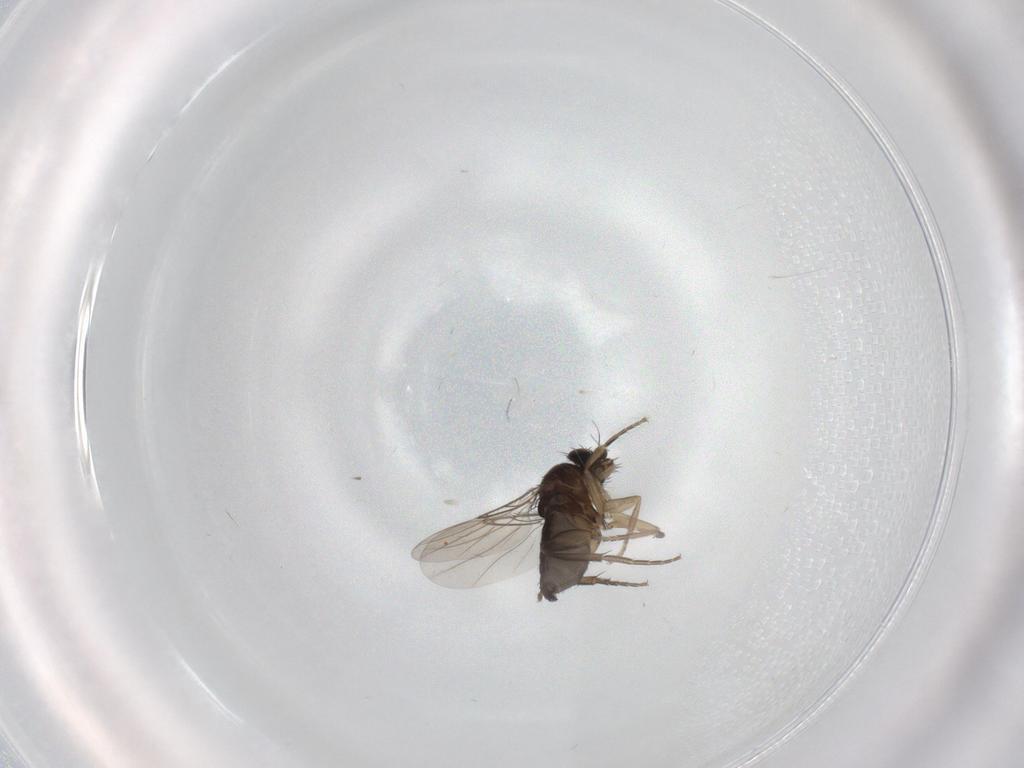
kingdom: Animalia
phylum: Arthropoda
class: Insecta
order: Diptera
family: Phoridae
